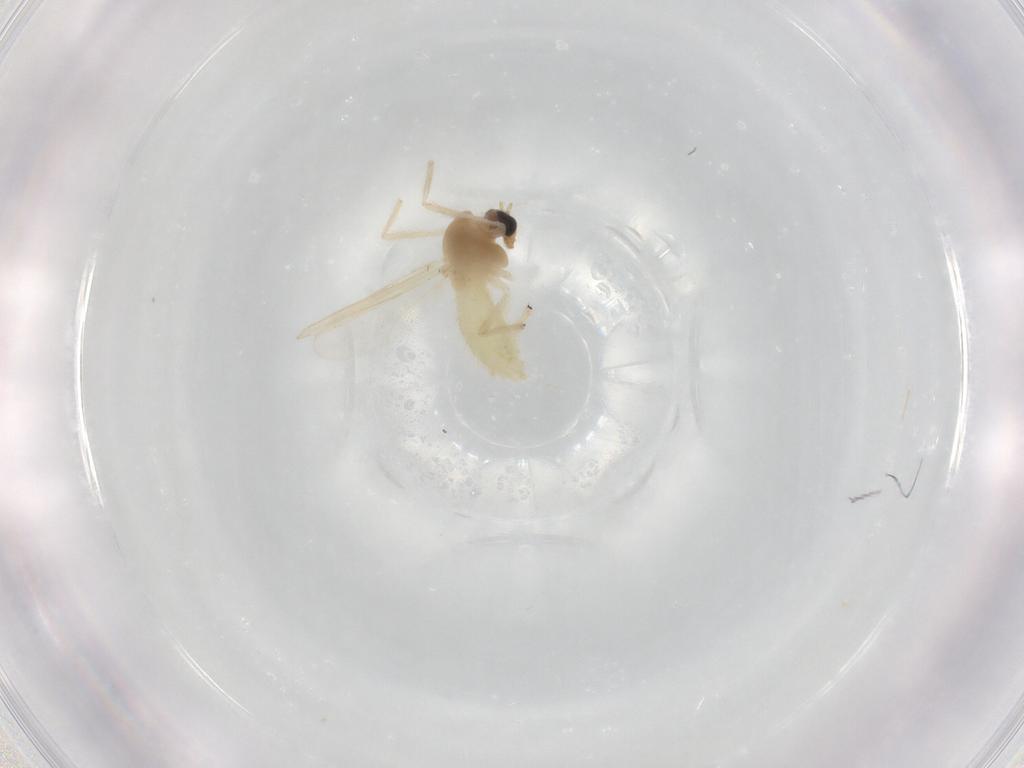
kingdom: Animalia
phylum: Arthropoda
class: Insecta
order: Diptera
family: Chironomidae
